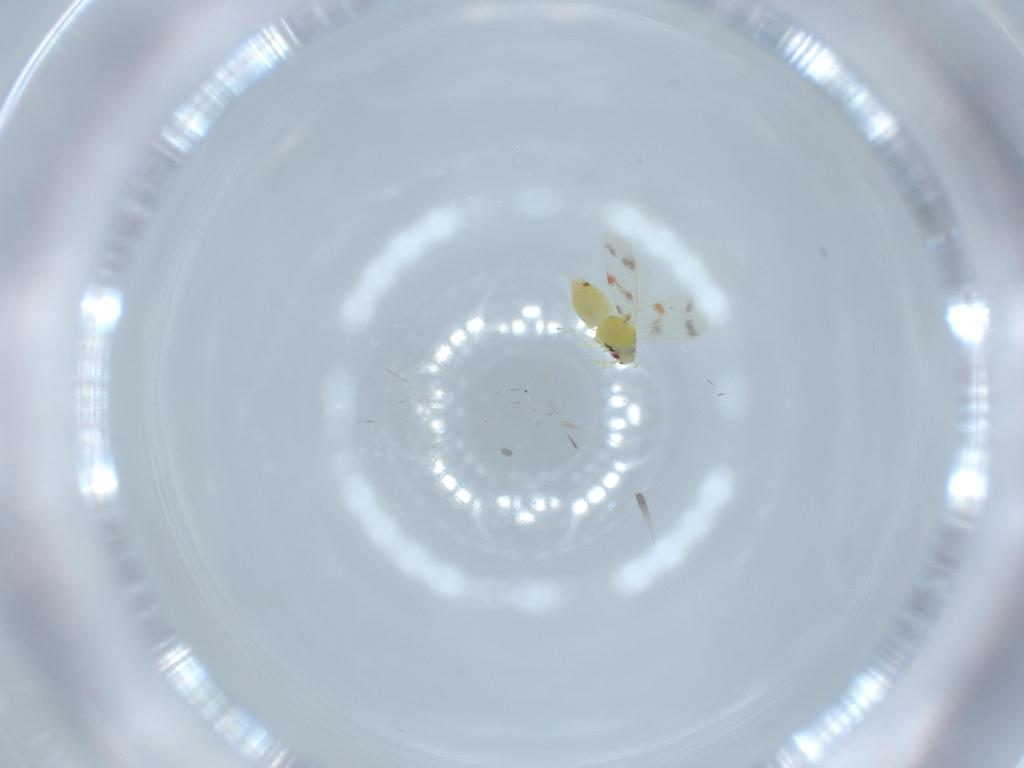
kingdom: Animalia
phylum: Arthropoda
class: Insecta
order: Hemiptera
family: Aleyrodidae
